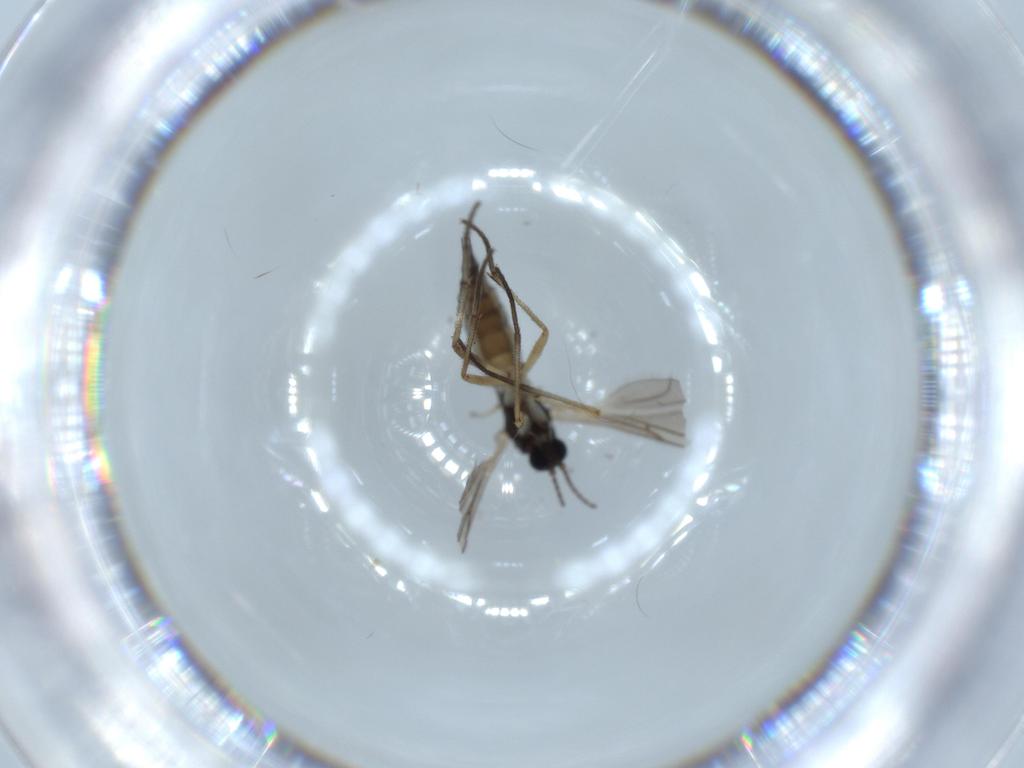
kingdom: Animalia
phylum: Arthropoda
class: Insecta
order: Diptera
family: Sciaridae
